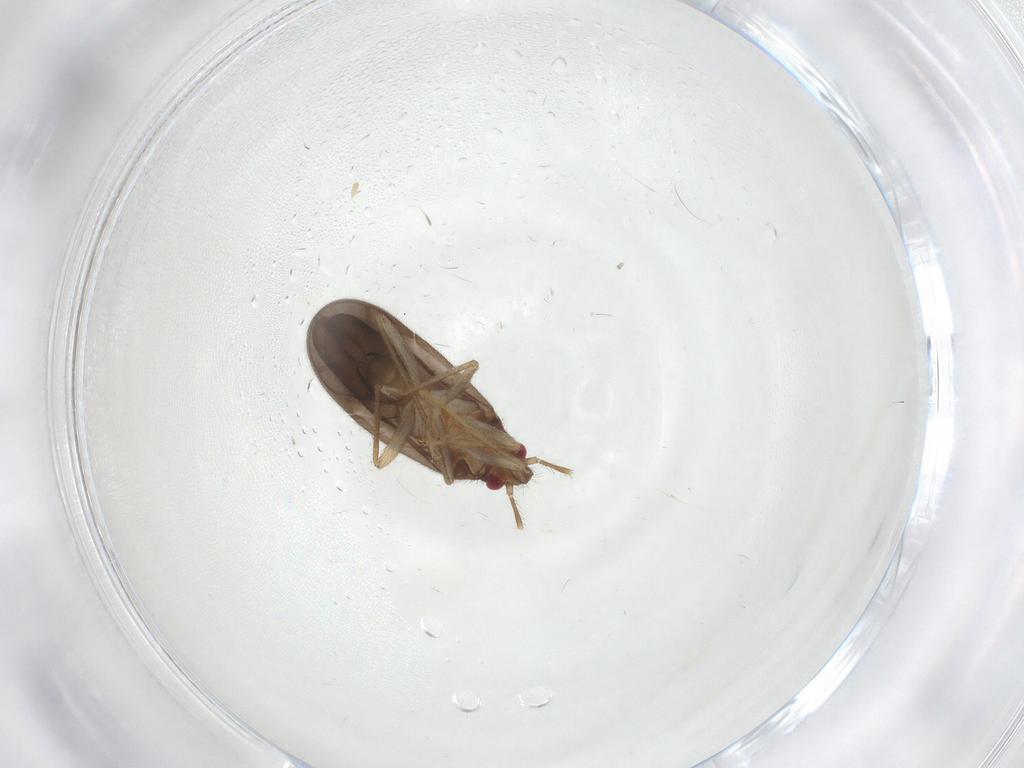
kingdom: Animalia
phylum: Arthropoda
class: Insecta
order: Hemiptera
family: Ceratocombidae
